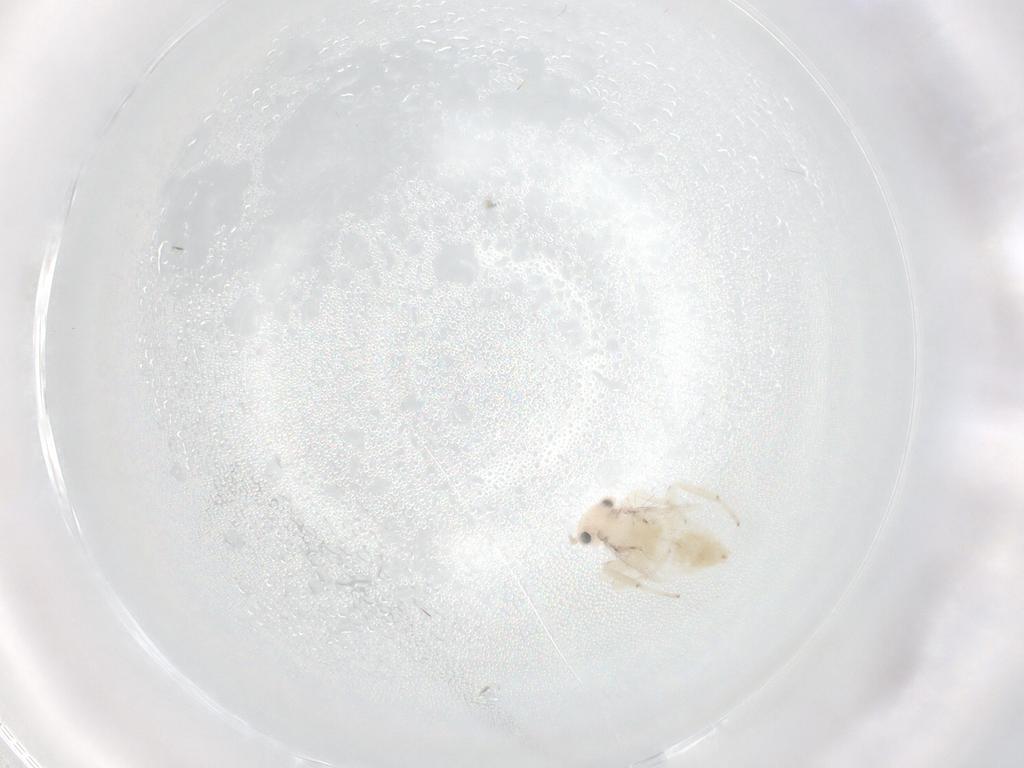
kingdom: Animalia
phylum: Arthropoda
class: Insecta
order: Psocodea
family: Lepidopsocidae
